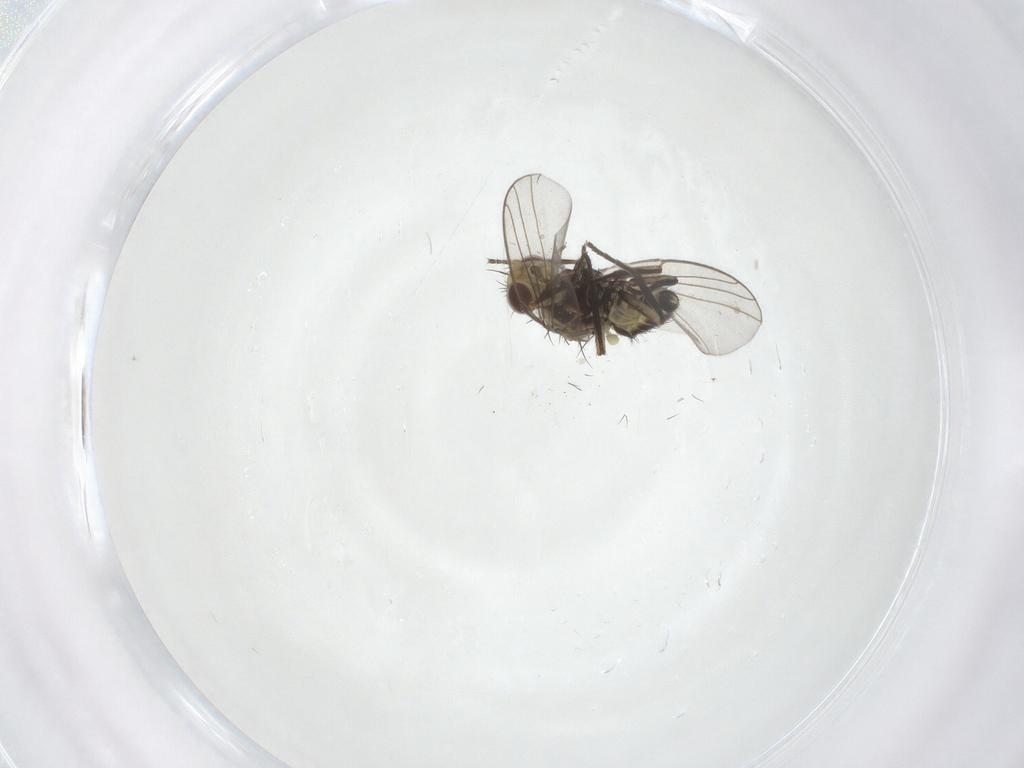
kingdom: Animalia
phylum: Arthropoda
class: Insecta
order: Diptera
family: Agromyzidae
